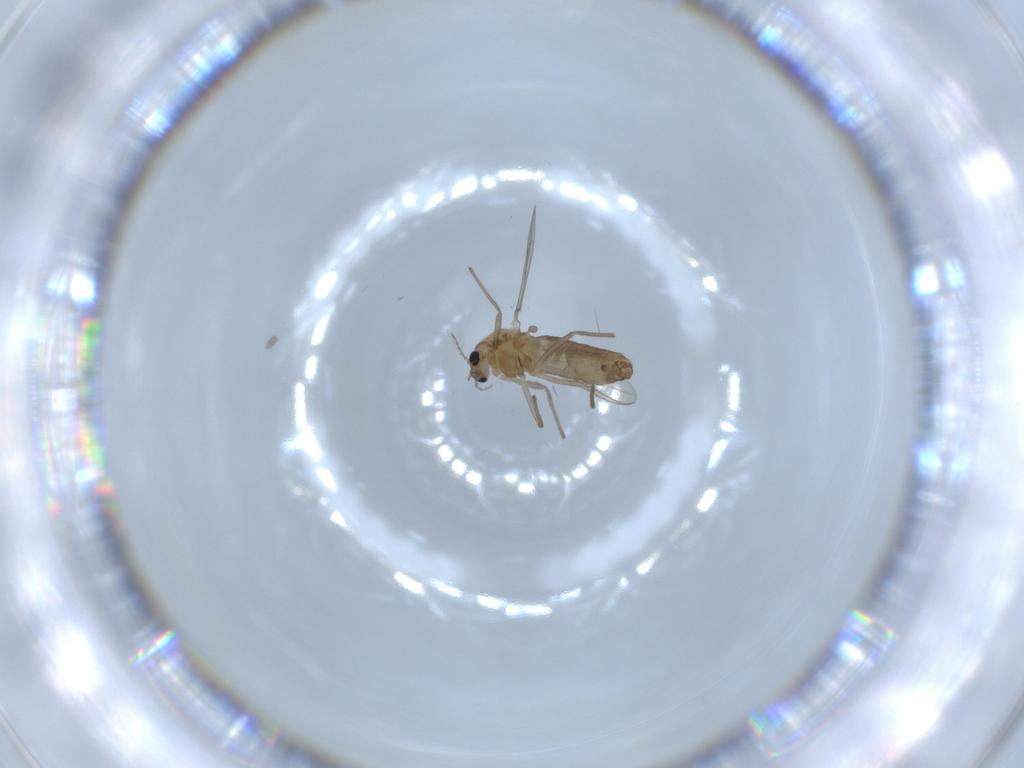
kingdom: Animalia
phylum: Arthropoda
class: Insecta
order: Diptera
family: Chironomidae
